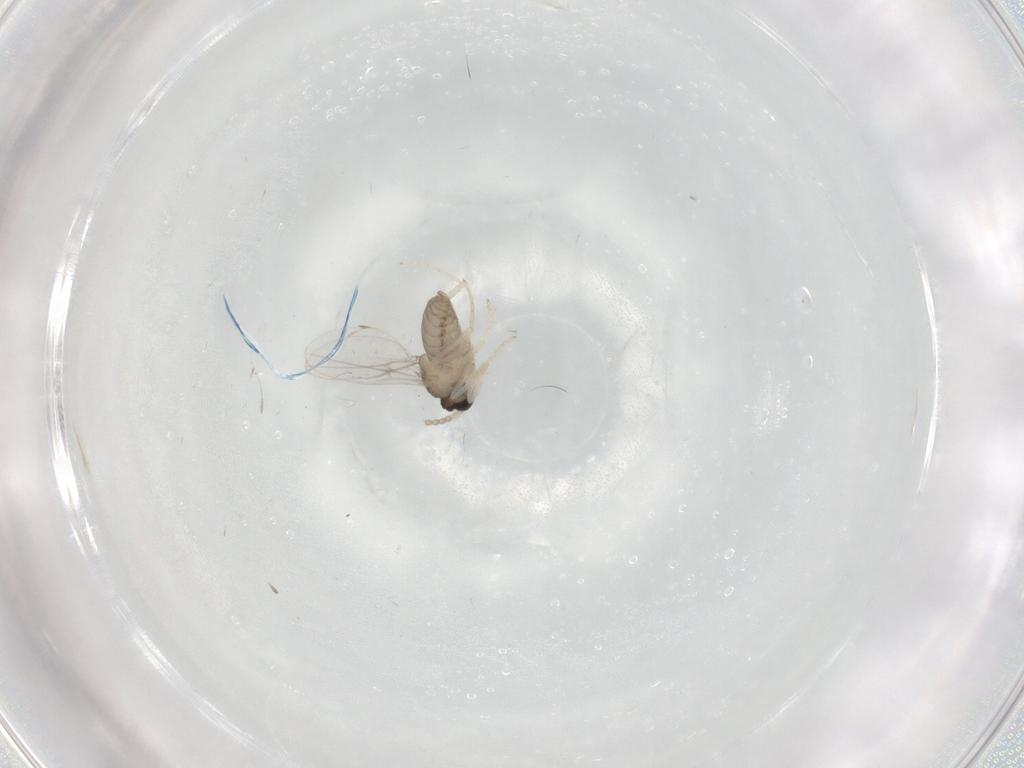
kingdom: Animalia
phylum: Arthropoda
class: Insecta
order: Diptera
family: Cecidomyiidae
